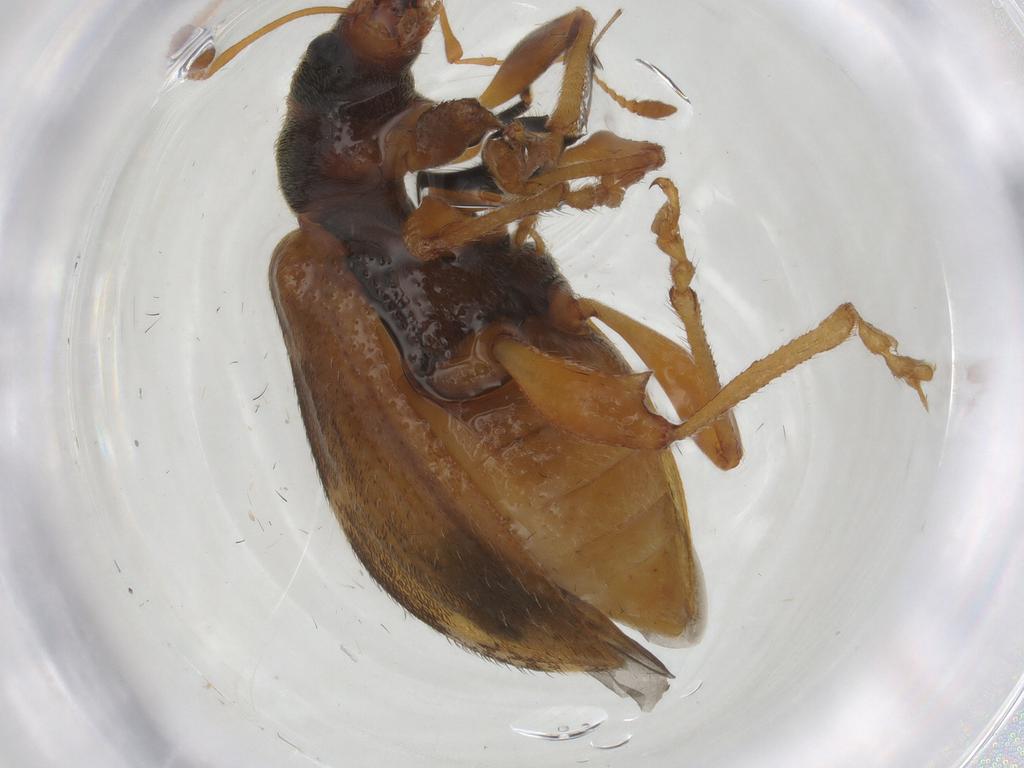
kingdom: Animalia
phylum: Arthropoda
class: Insecta
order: Coleoptera
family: Curculionidae
